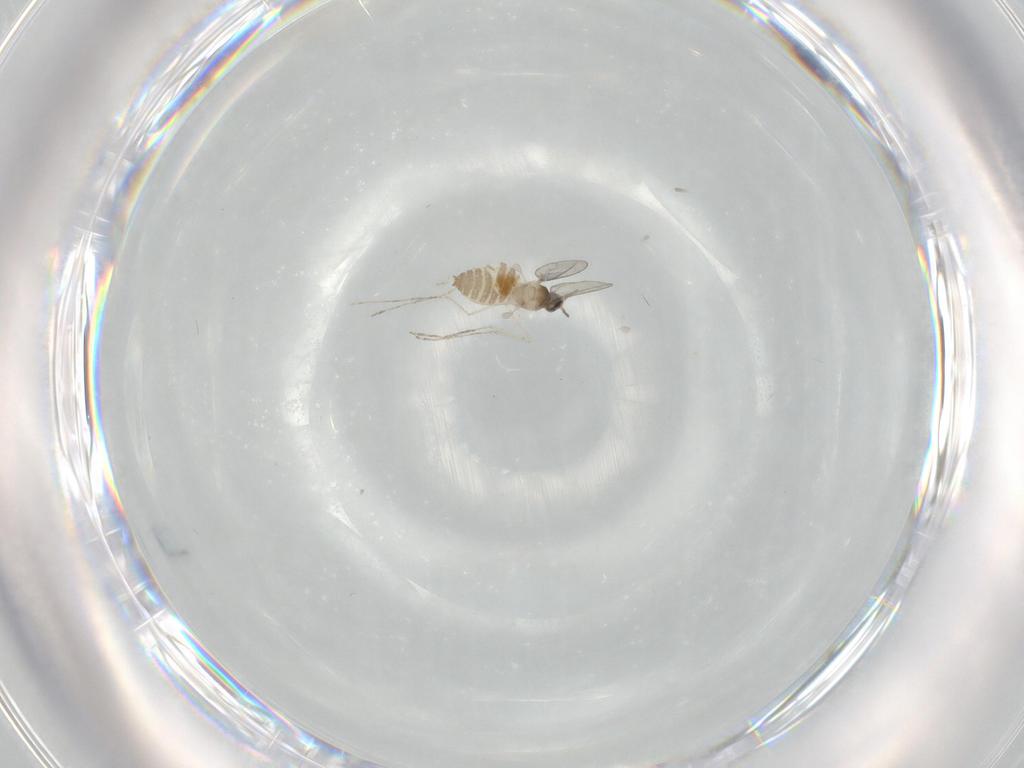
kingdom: Animalia
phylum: Arthropoda
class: Insecta
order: Diptera
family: Cecidomyiidae
